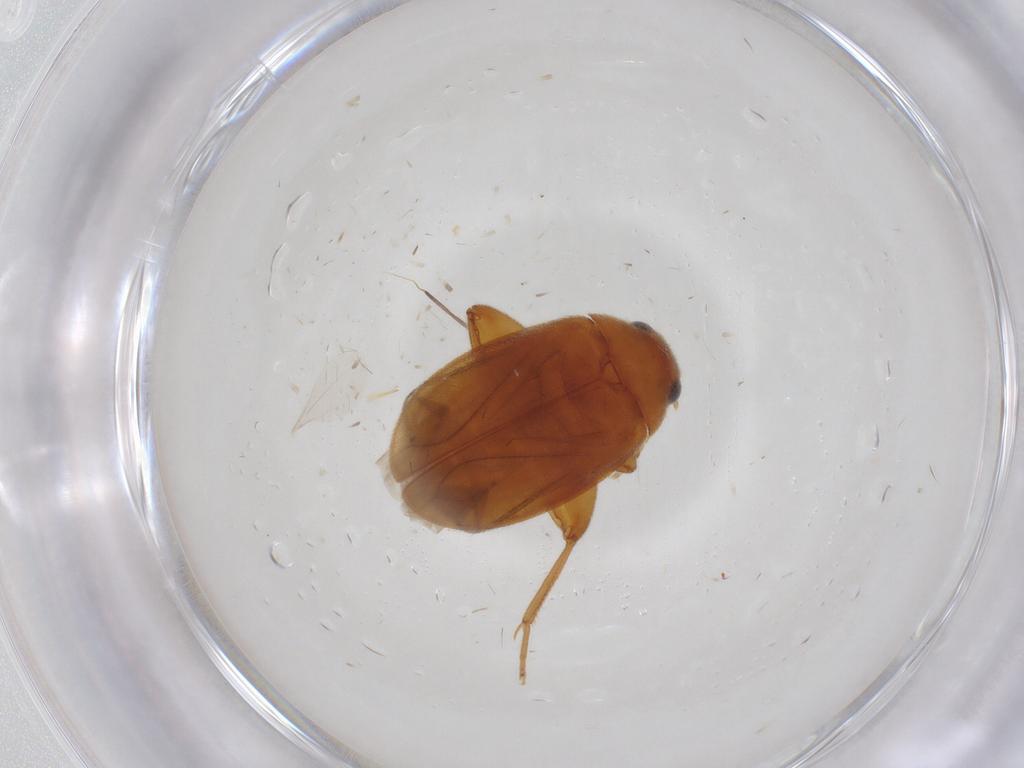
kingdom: Animalia
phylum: Arthropoda
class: Insecta
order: Coleoptera
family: Scirtidae
